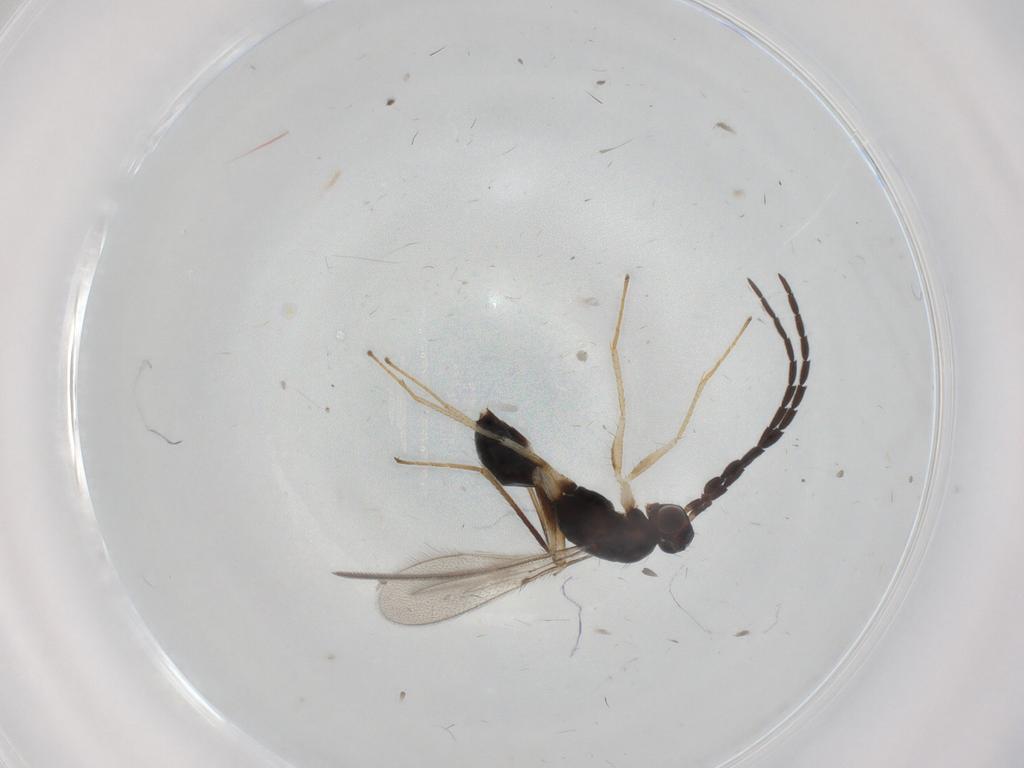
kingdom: Animalia
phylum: Arthropoda
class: Insecta
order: Hymenoptera
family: Mymaridae
